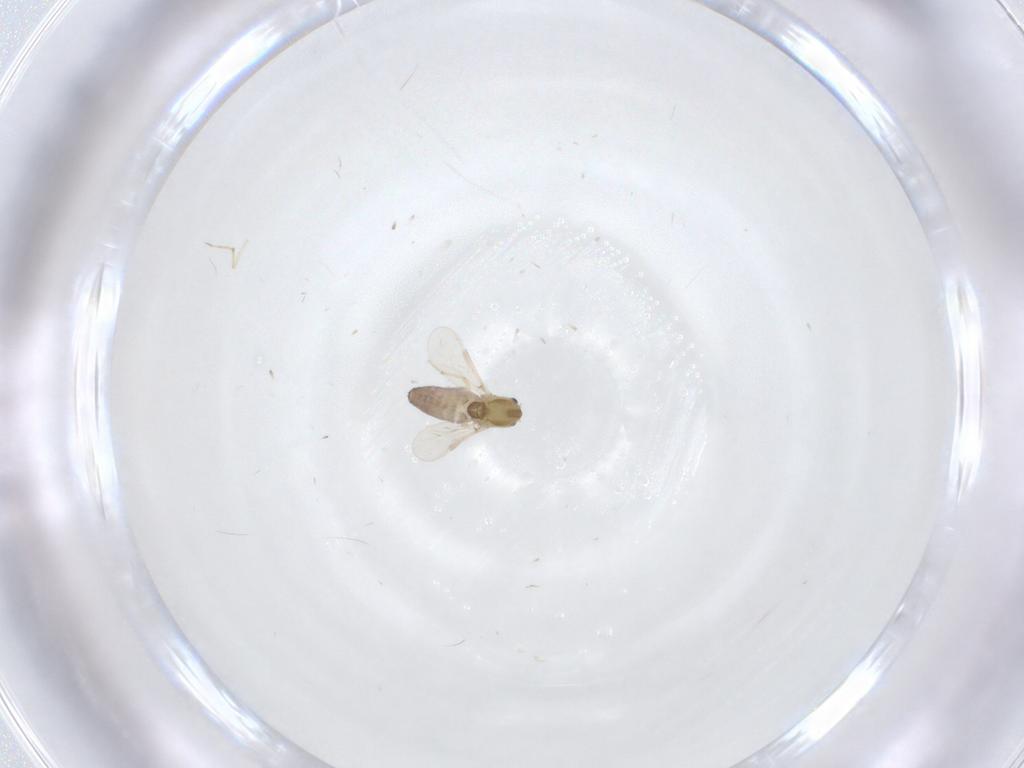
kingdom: Animalia
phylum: Arthropoda
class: Insecta
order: Diptera
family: Chironomidae
